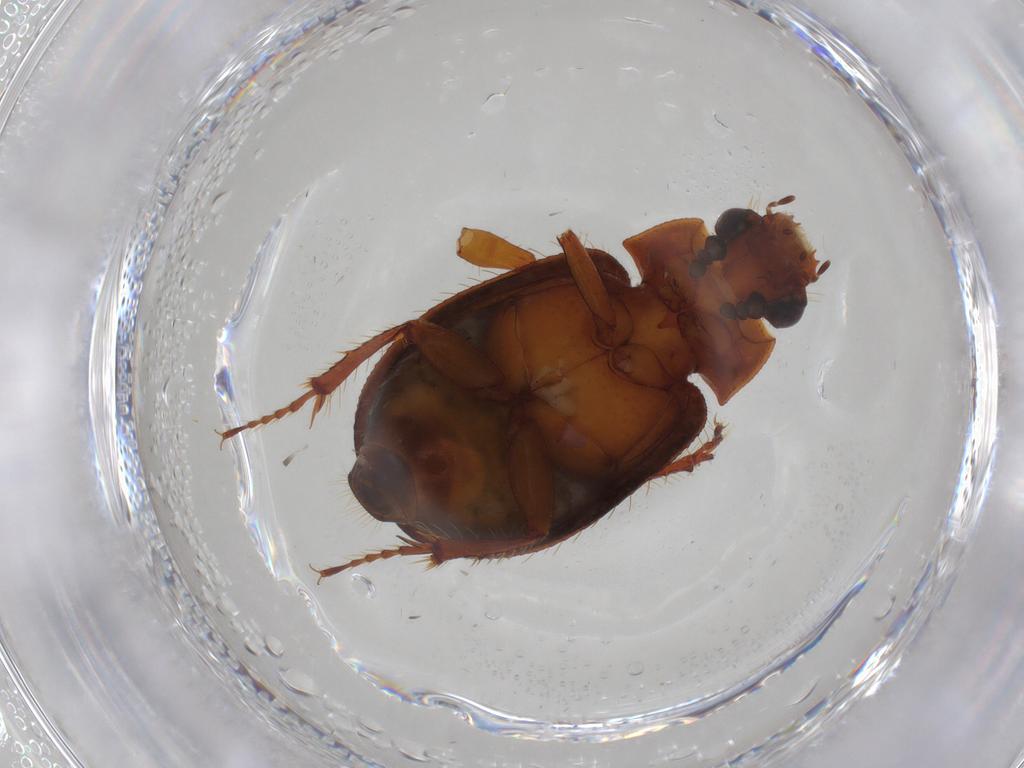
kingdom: Animalia
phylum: Arthropoda
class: Insecta
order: Coleoptera
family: Hybosoridae
